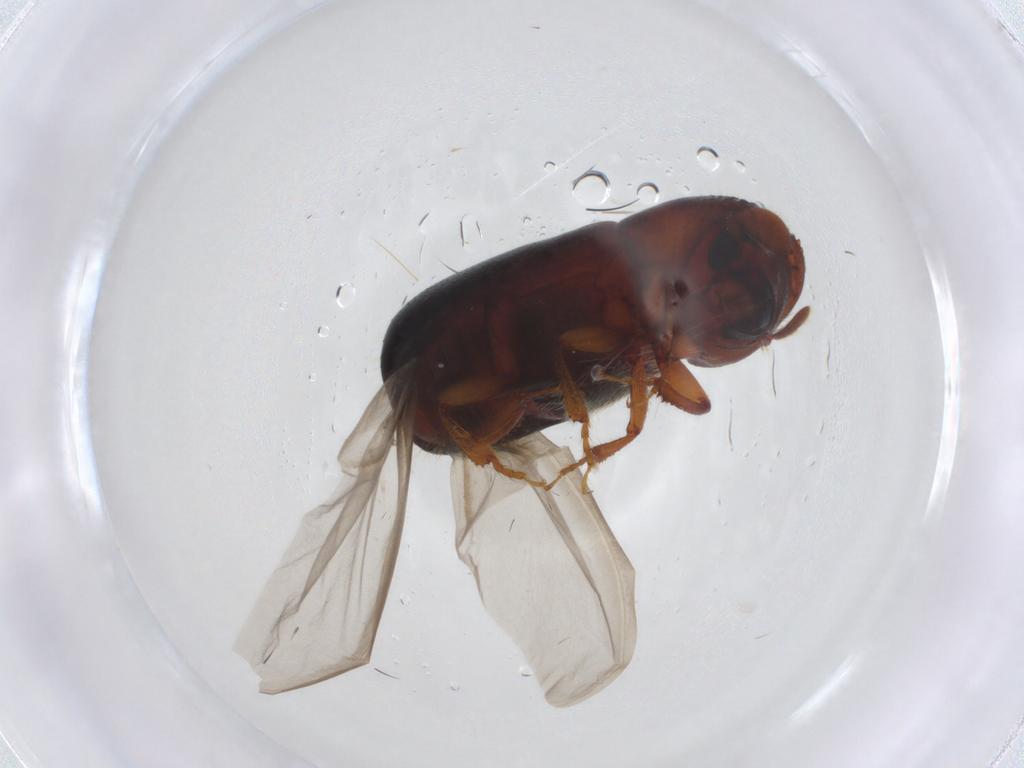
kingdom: Animalia
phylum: Arthropoda
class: Insecta
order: Coleoptera
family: Curculionidae
